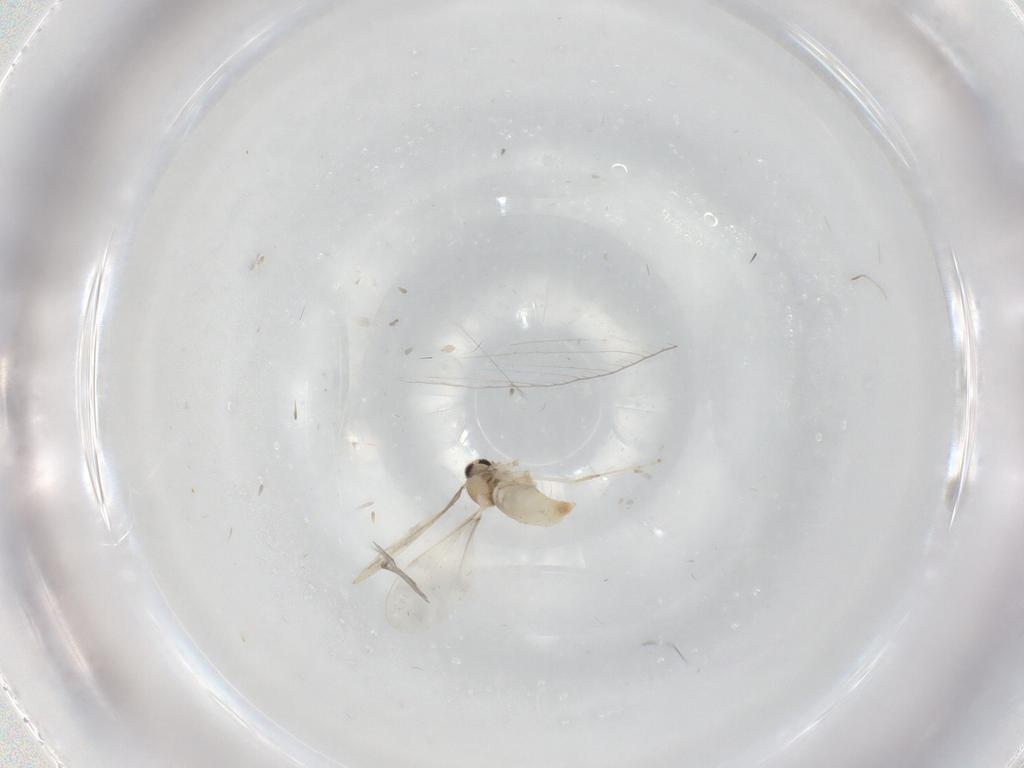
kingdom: Animalia
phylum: Arthropoda
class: Insecta
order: Diptera
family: Cecidomyiidae
